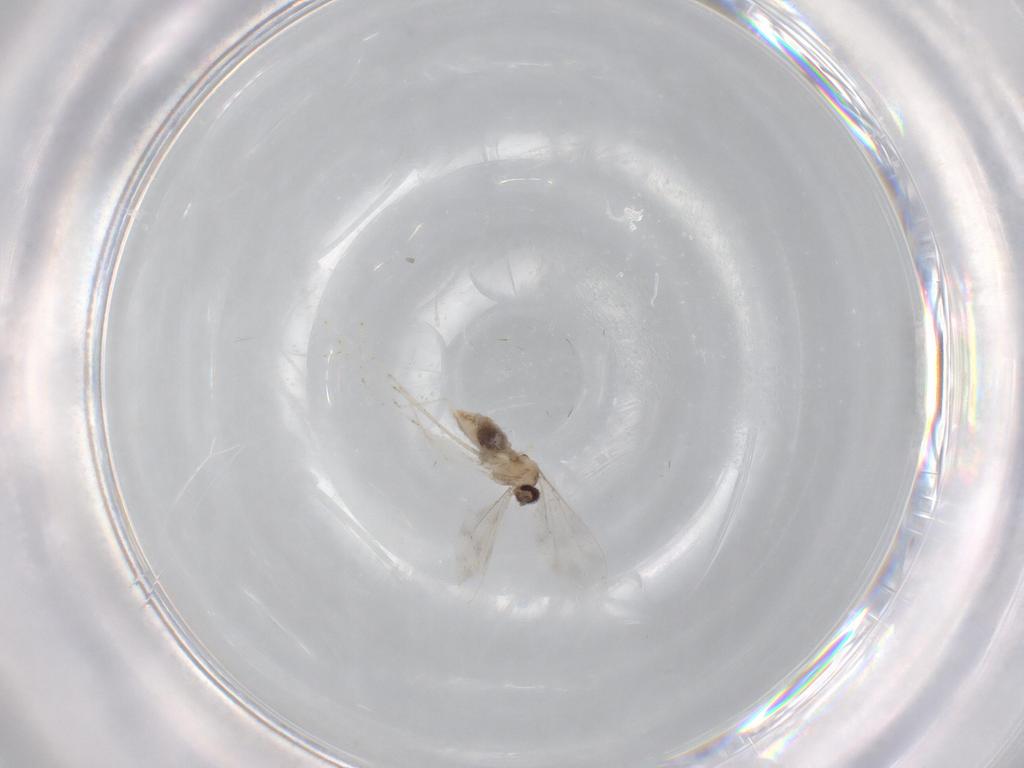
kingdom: Animalia
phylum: Arthropoda
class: Insecta
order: Diptera
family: Cecidomyiidae
